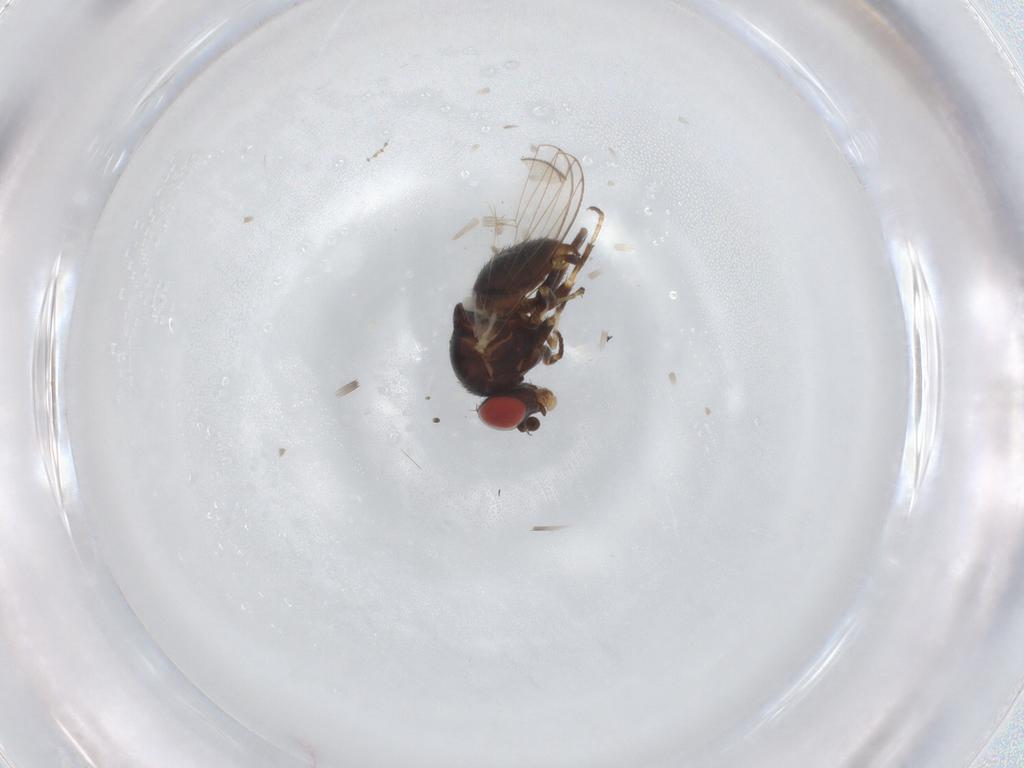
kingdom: Animalia
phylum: Arthropoda
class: Insecta
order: Diptera
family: Chamaemyiidae
